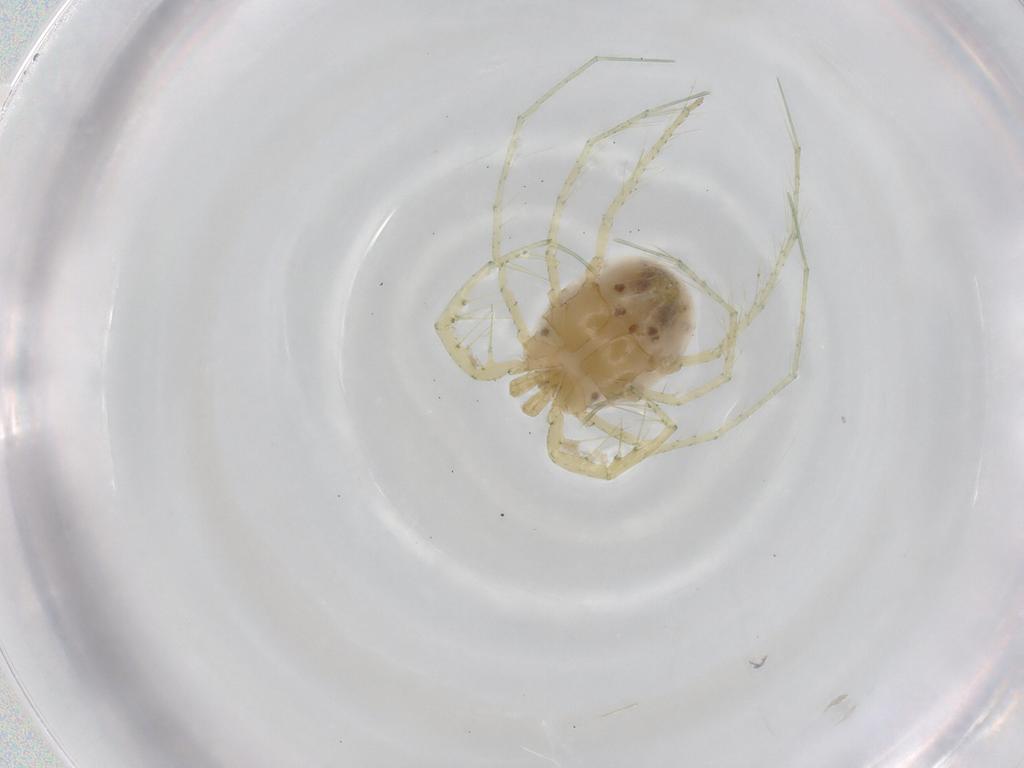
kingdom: Animalia
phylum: Arthropoda
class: Arachnida
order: Trombidiformes
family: Unionicolidae
